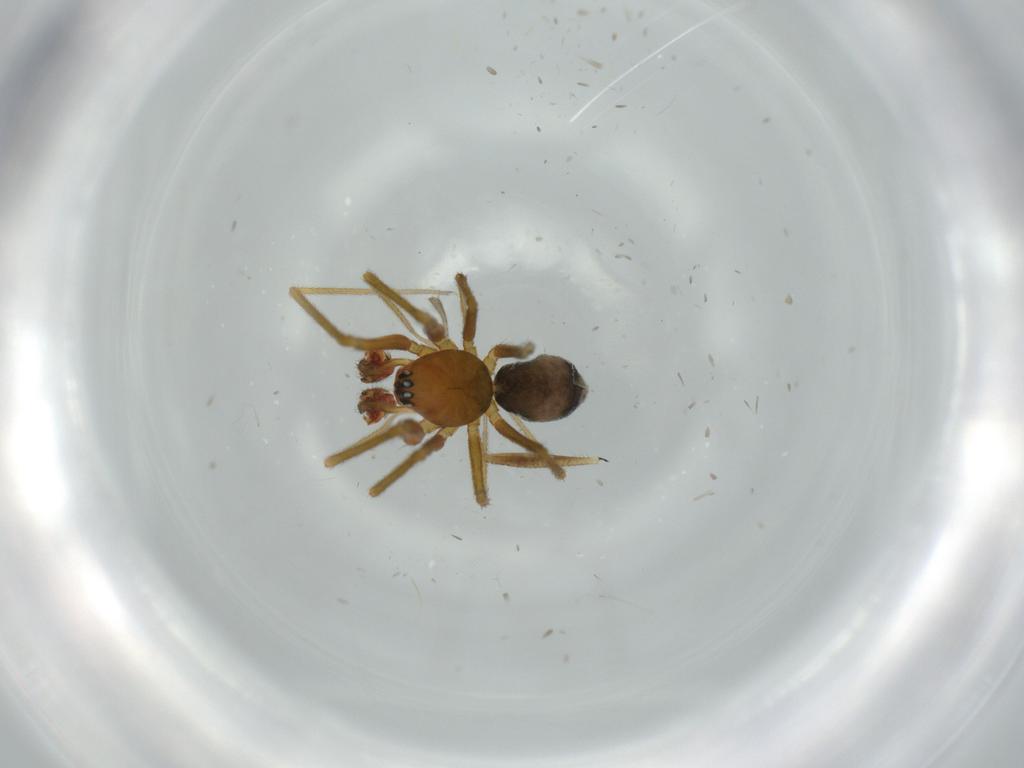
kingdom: Animalia
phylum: Arthropoda
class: Arachnida
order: Araneae
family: Linyphiidae
